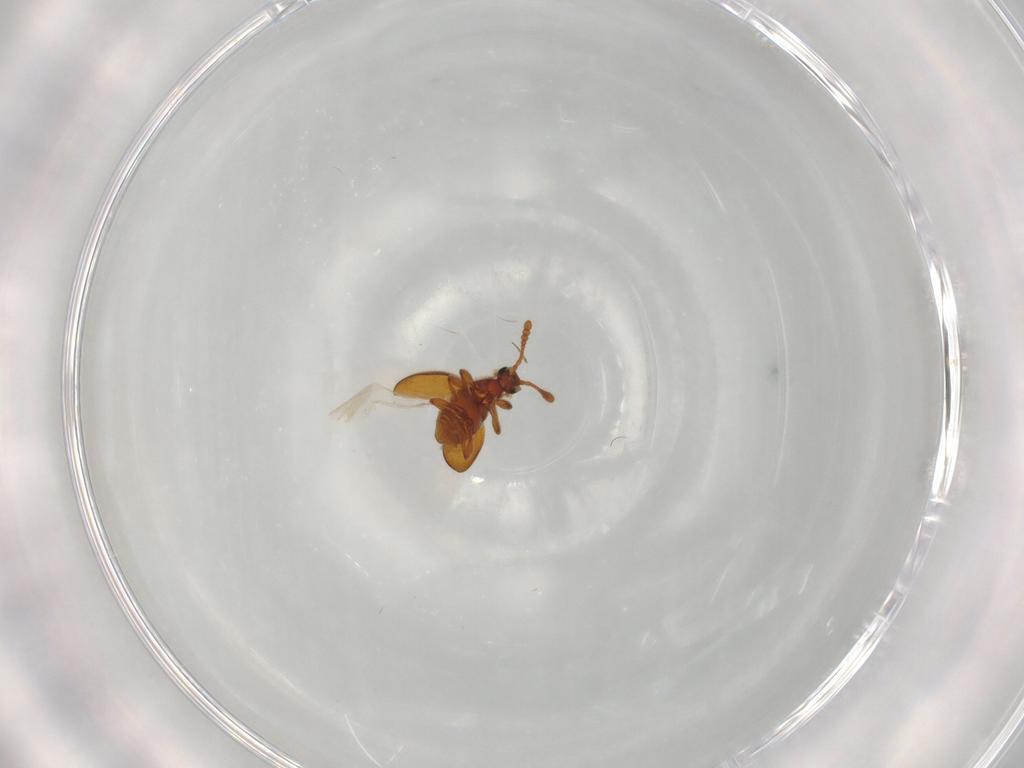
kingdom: Animalia
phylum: Arthropoda
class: Insecta
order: Coleoptera
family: Staphylinidae
